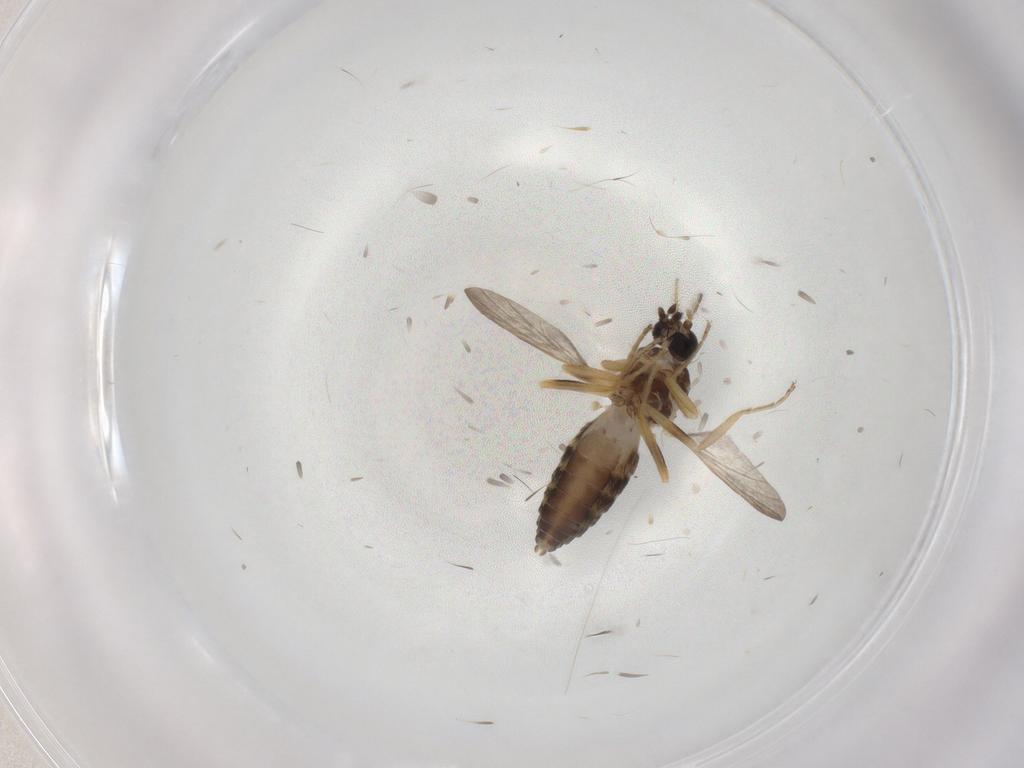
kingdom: Animalia
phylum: Arthropoda
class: Insecta
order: Diptera
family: Ceratopogonidae
